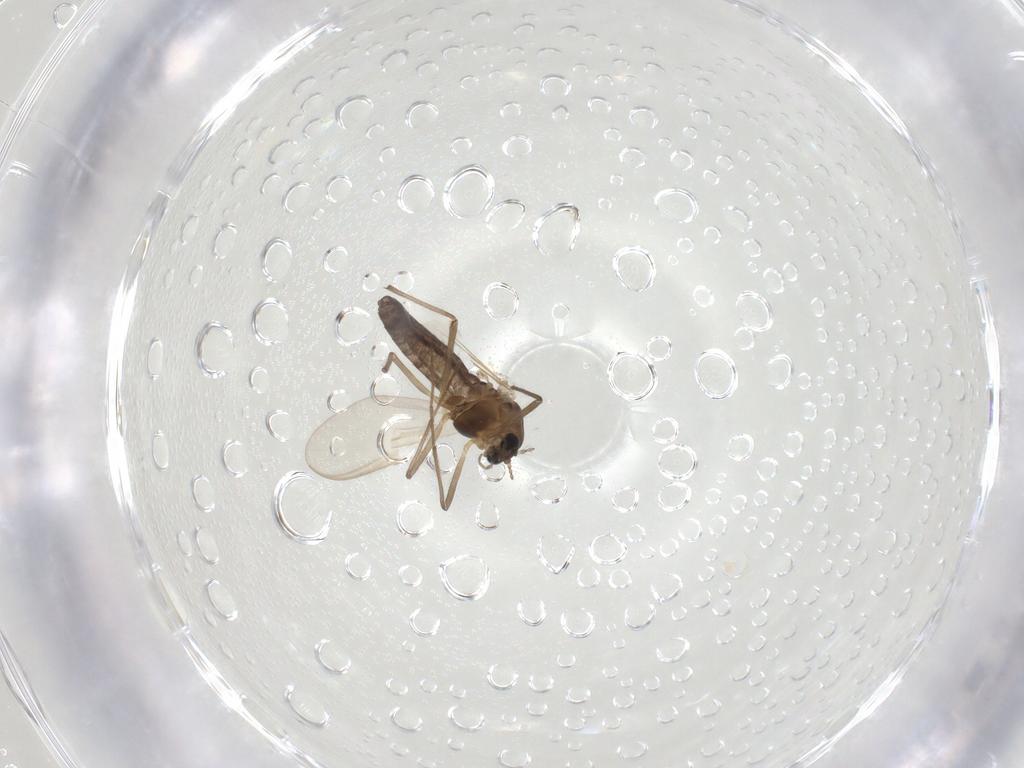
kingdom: Animalia
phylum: Arthropoda
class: Insecta
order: Diptera
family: Chironomidae
